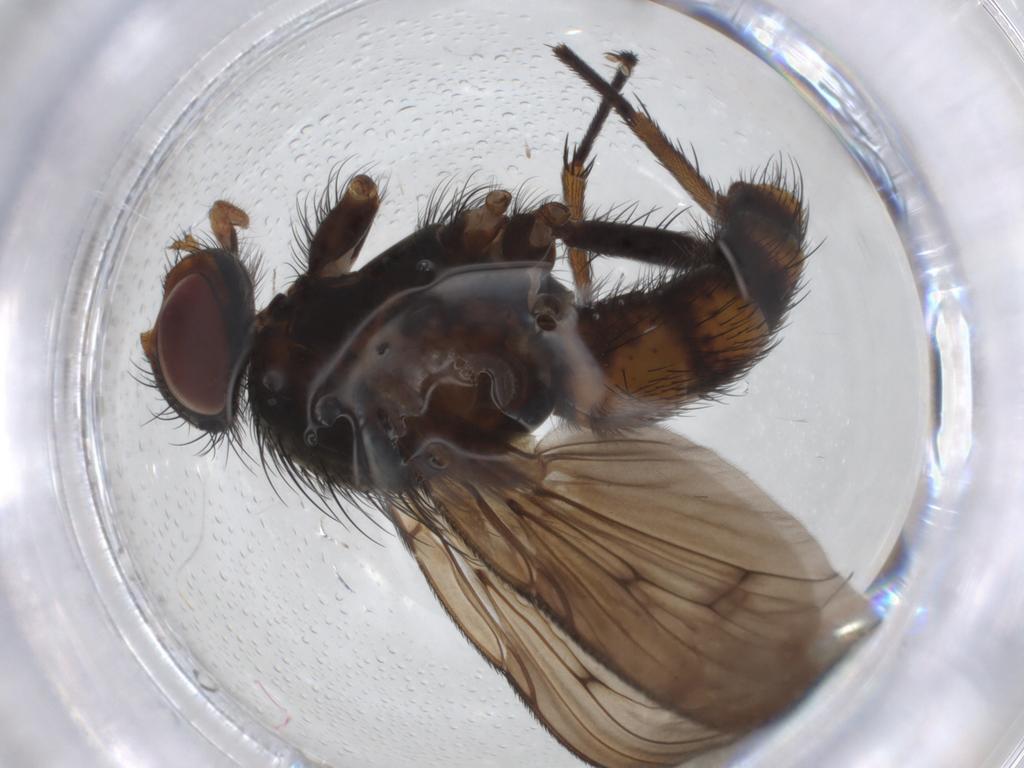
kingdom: Animalia
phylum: Arthropoda
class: Insecta
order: Diptera
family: Muscidae
